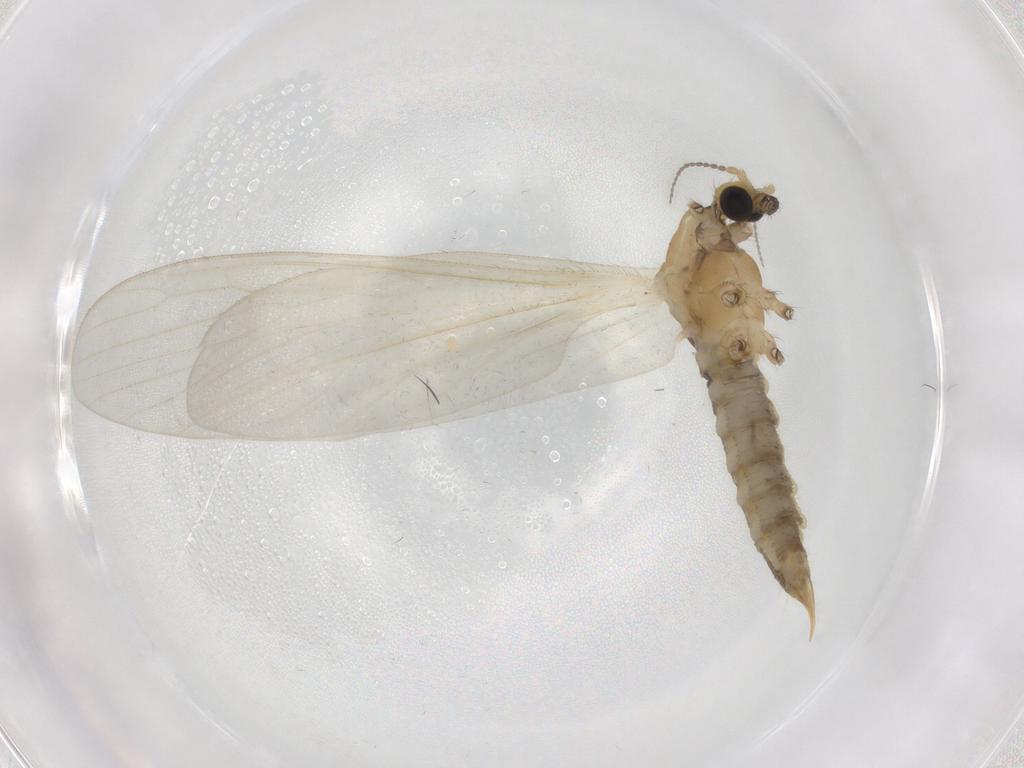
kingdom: Animalia
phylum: Arthropoda
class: Insecta
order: Diptera
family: Limoniidae
